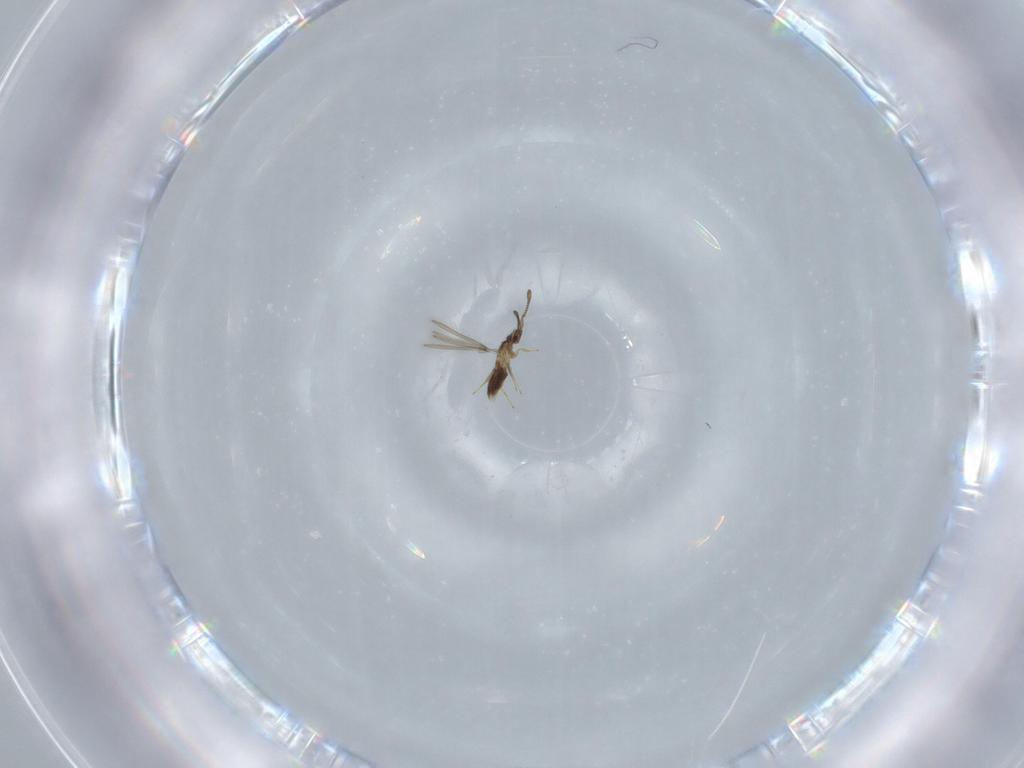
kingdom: Animalia
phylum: Arthropoda
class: Insecta
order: Hymenoptera
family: Mymaridae
